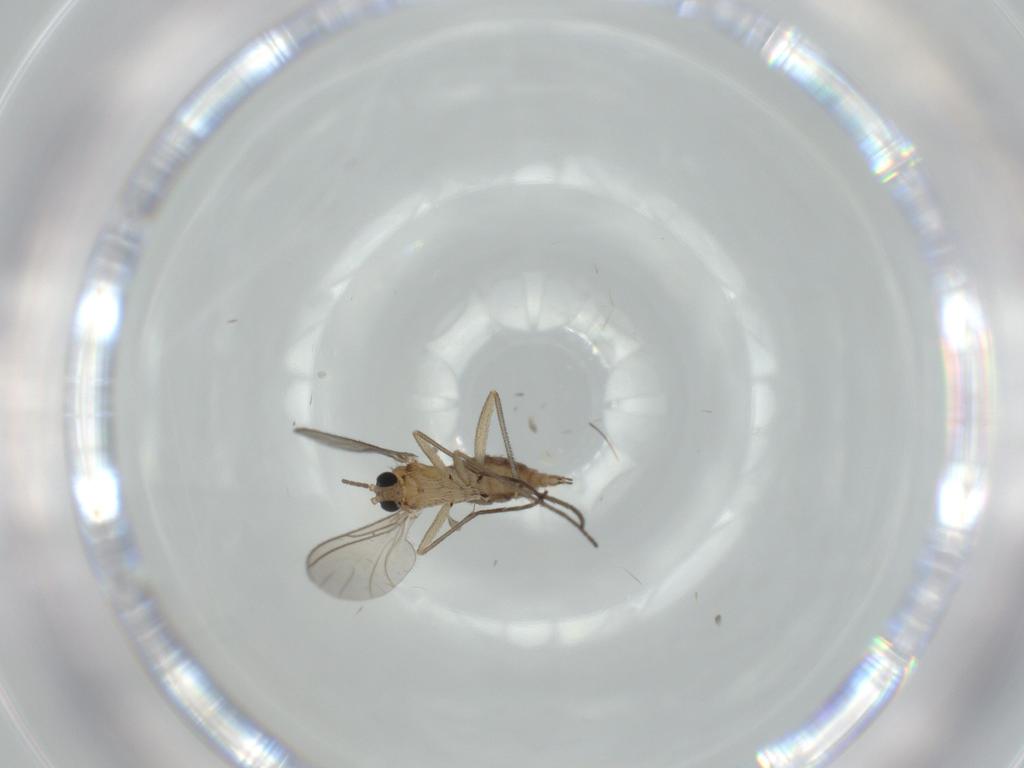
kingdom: Animalia
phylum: Arthropoda
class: Insecta
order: Diptera
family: Sciaridae
